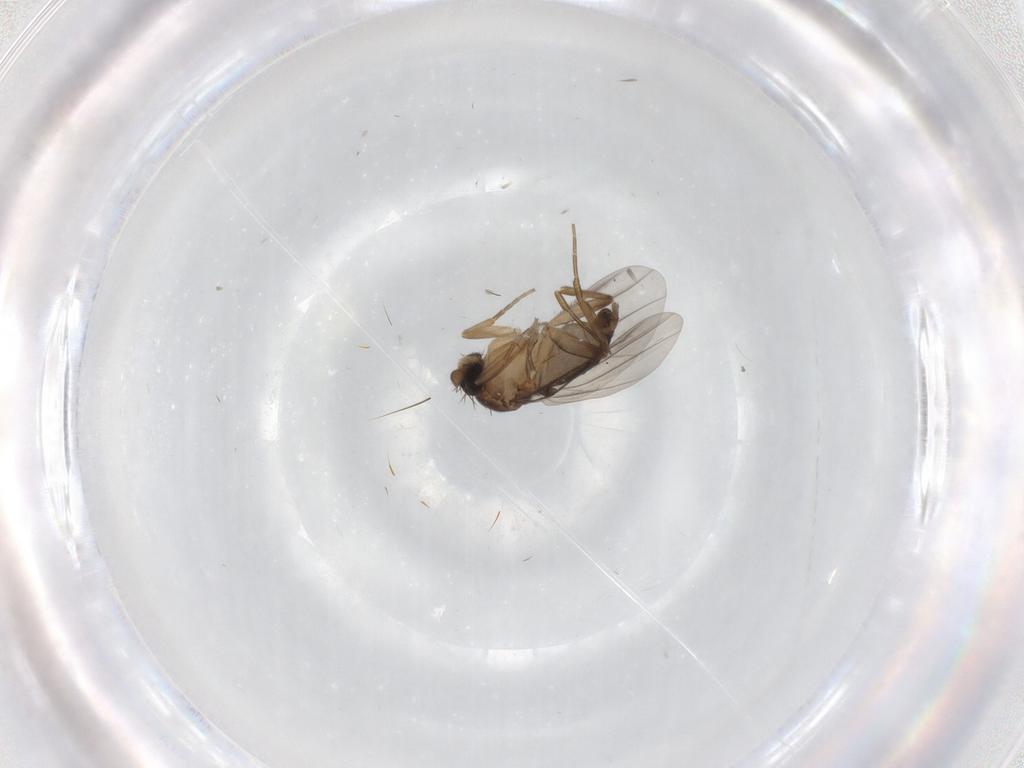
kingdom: Animalia
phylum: Arthropoda
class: Insecta
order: Diptera
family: Phoridae
